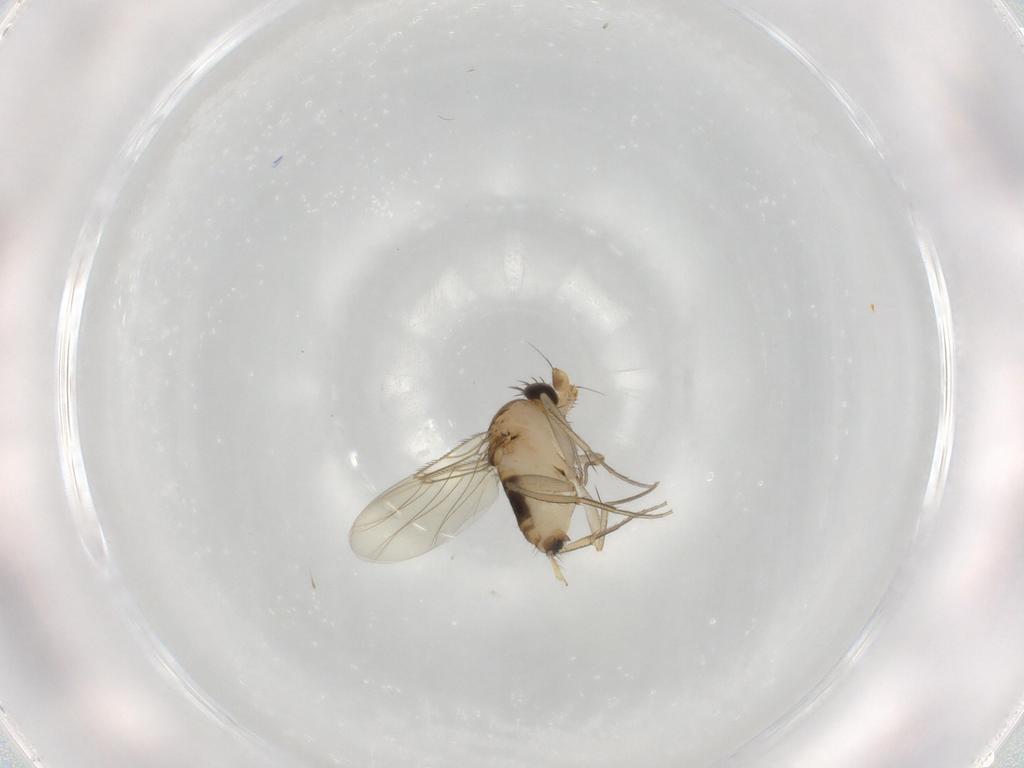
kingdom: Animalia
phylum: Arthropoda
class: Insecta
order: Diptera
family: Phoridae
